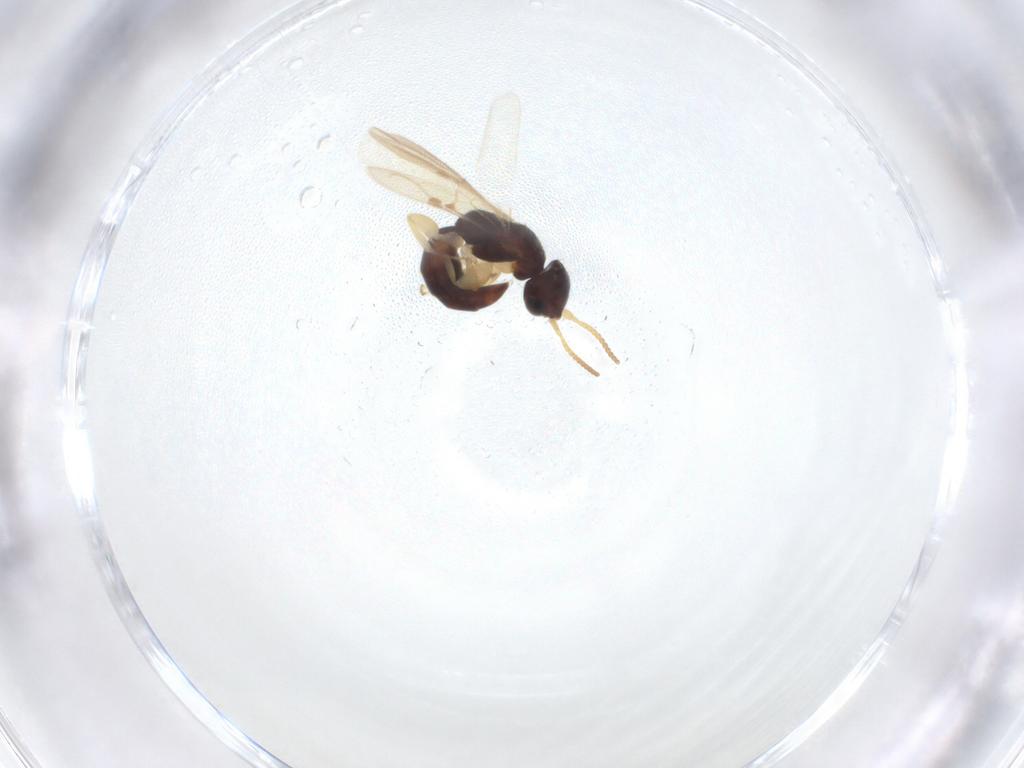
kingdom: Animalia
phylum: Arthropoda
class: Insecta
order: Hymenoptera
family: Bethylidae
